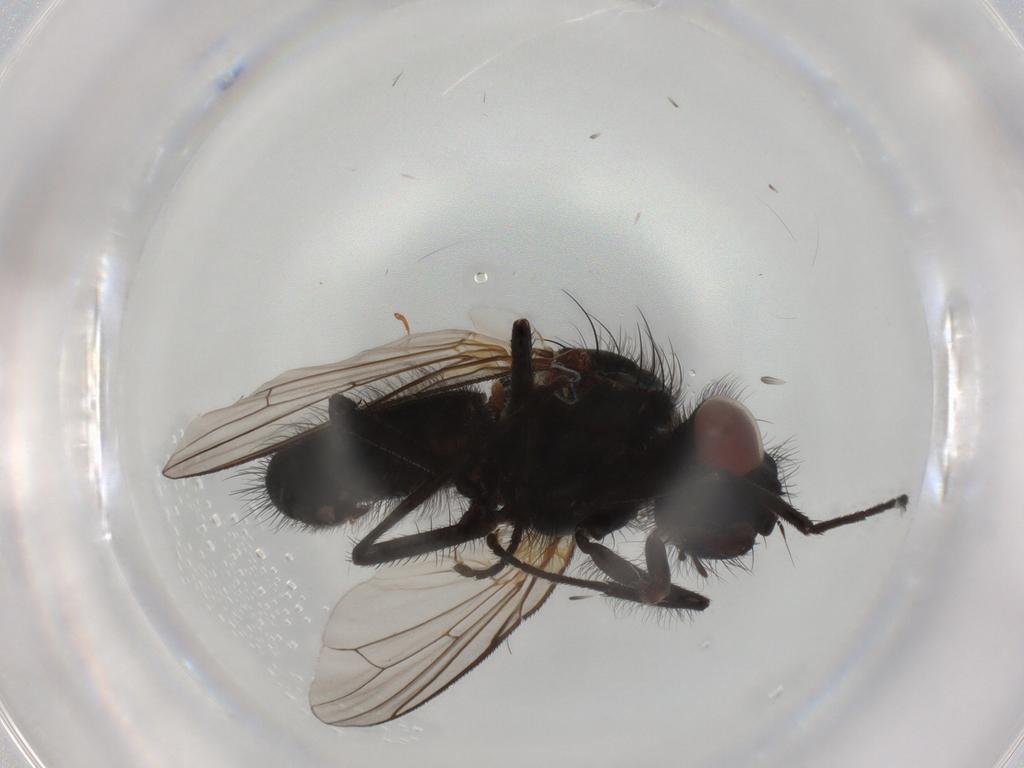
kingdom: Animalia
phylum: Arthropoda
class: Insecta
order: Diptera
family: Anthomyiidae
